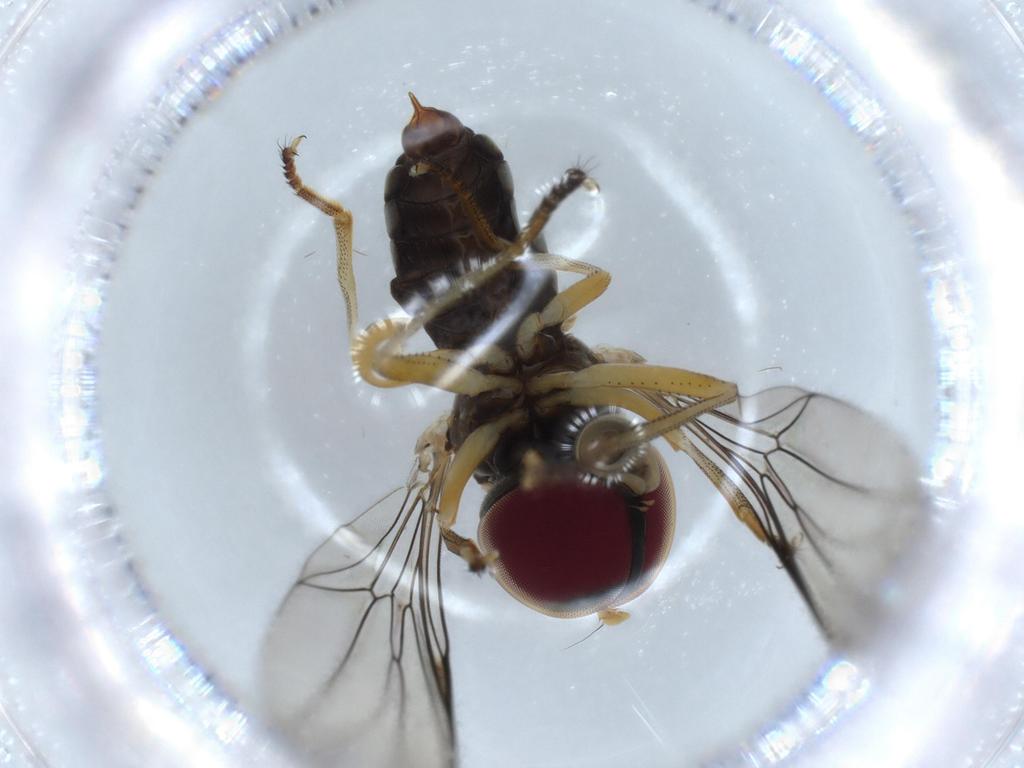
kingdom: Animalia
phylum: Arthropoda
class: Insecta
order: Diptera
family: Pipunculidae
